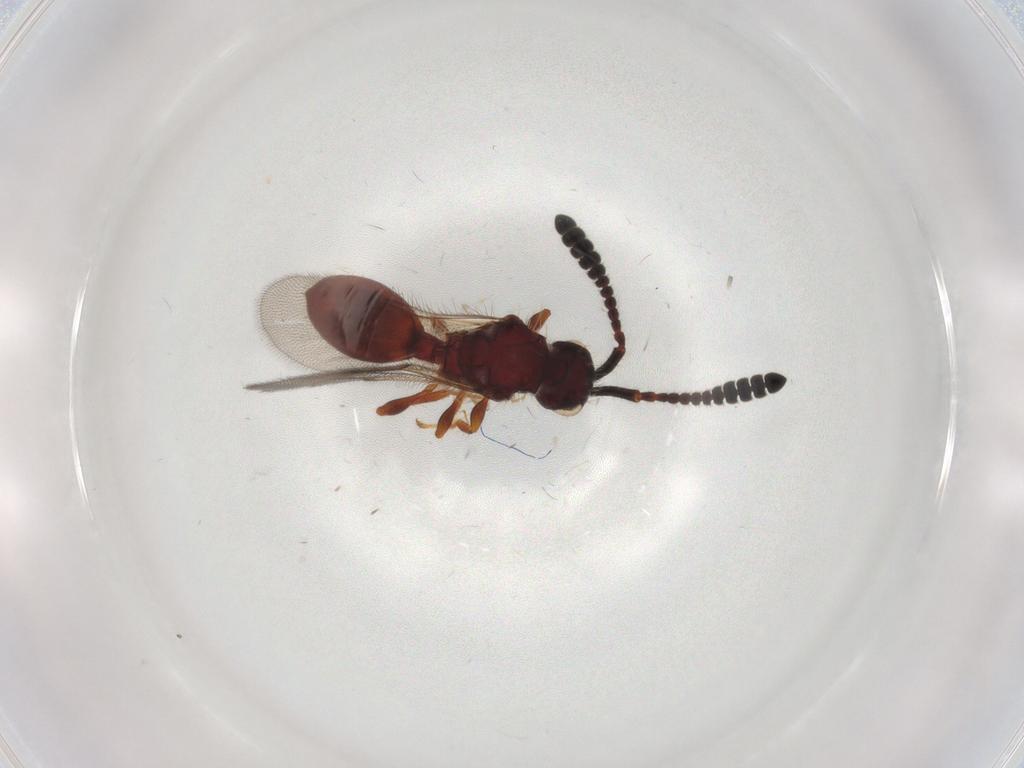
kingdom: Animalia
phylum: Arthropoda
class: Insecta
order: Hymenoptera
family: Diapriidae
